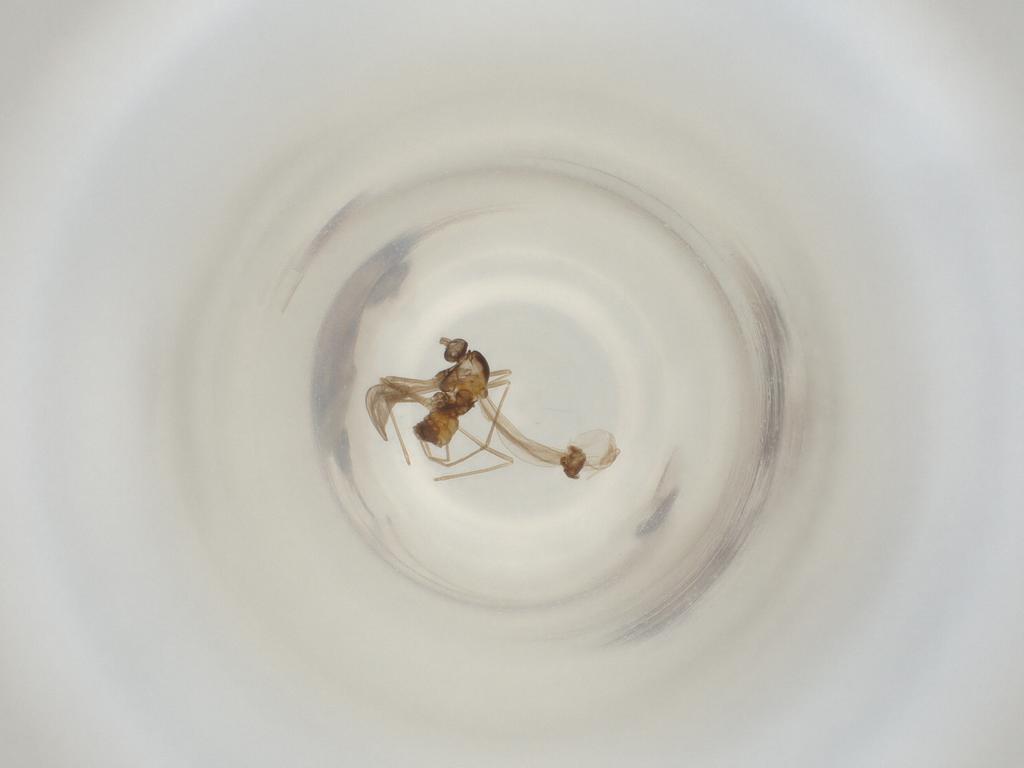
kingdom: Animalia
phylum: Arthropoda
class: Insecta
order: Diptera
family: Cecidomyiidae
